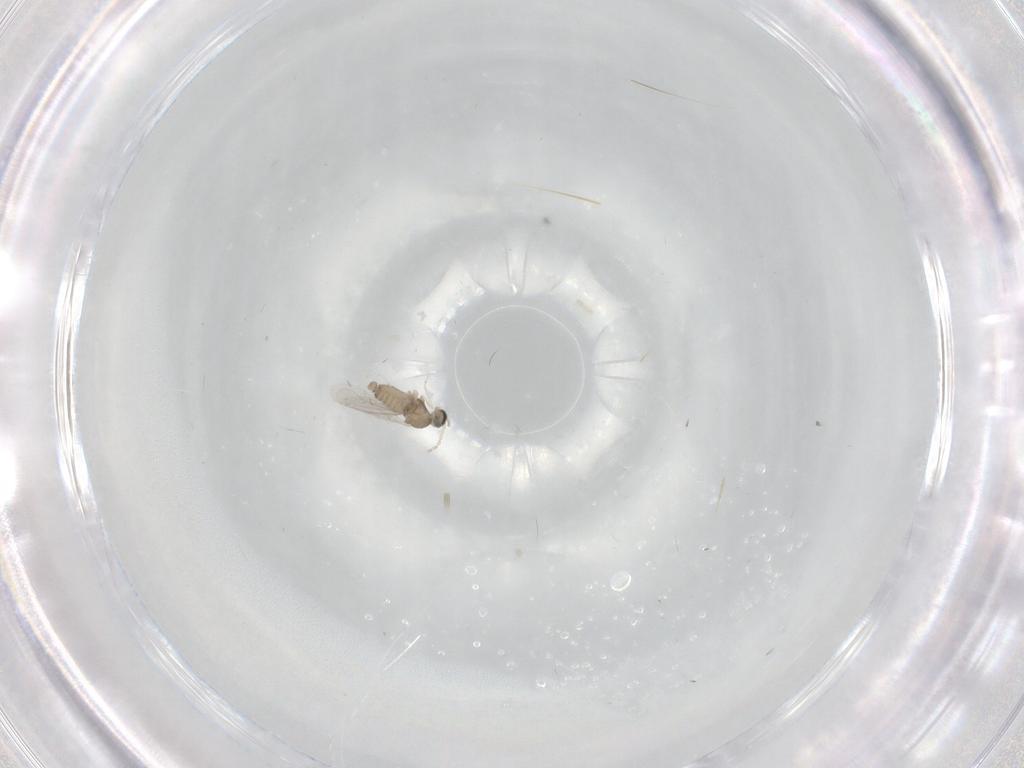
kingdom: Animalia
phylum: Arthropoda
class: Insecta
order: Diptera
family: Cecidomyiidae
